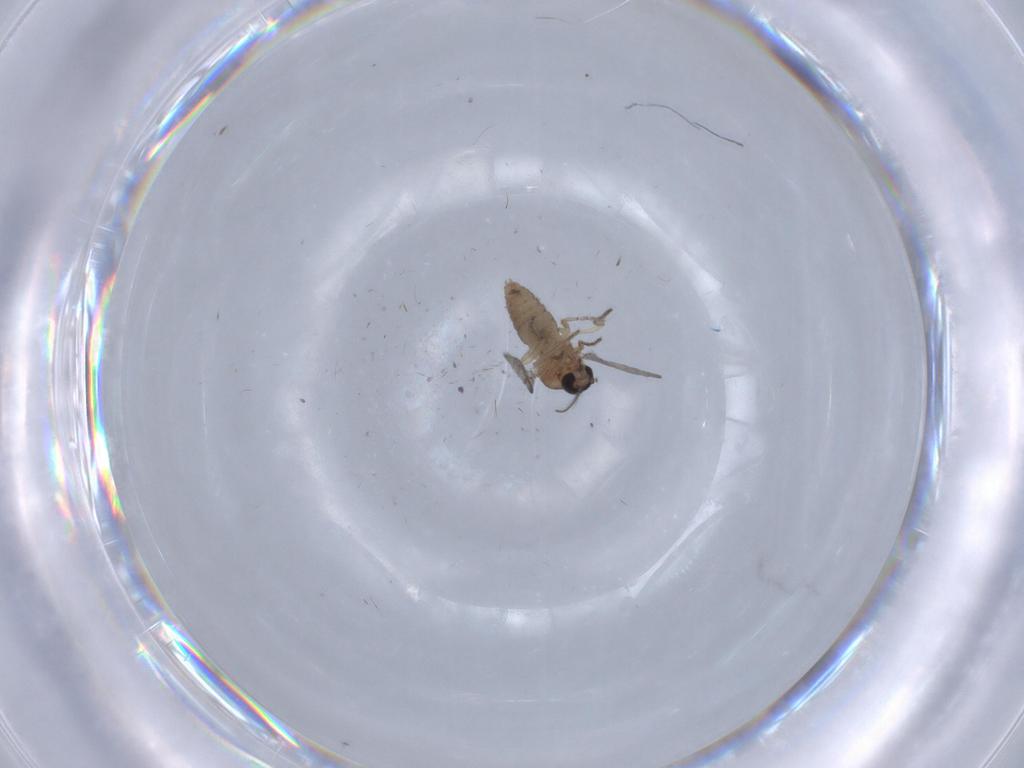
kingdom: Animalia
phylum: Arthropoda
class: Insecta
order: Diptera
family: Ceratopogonidae
